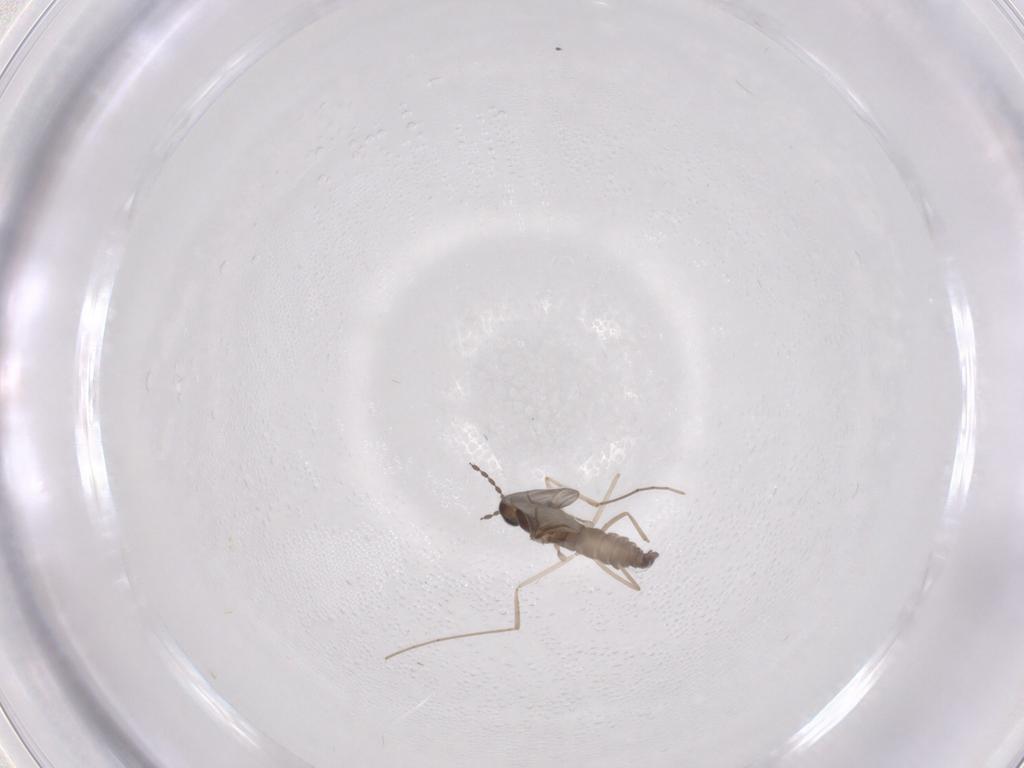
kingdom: Animalia
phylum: Arthropoda
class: Insecta
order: Diptera
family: Cecidomyiidae
